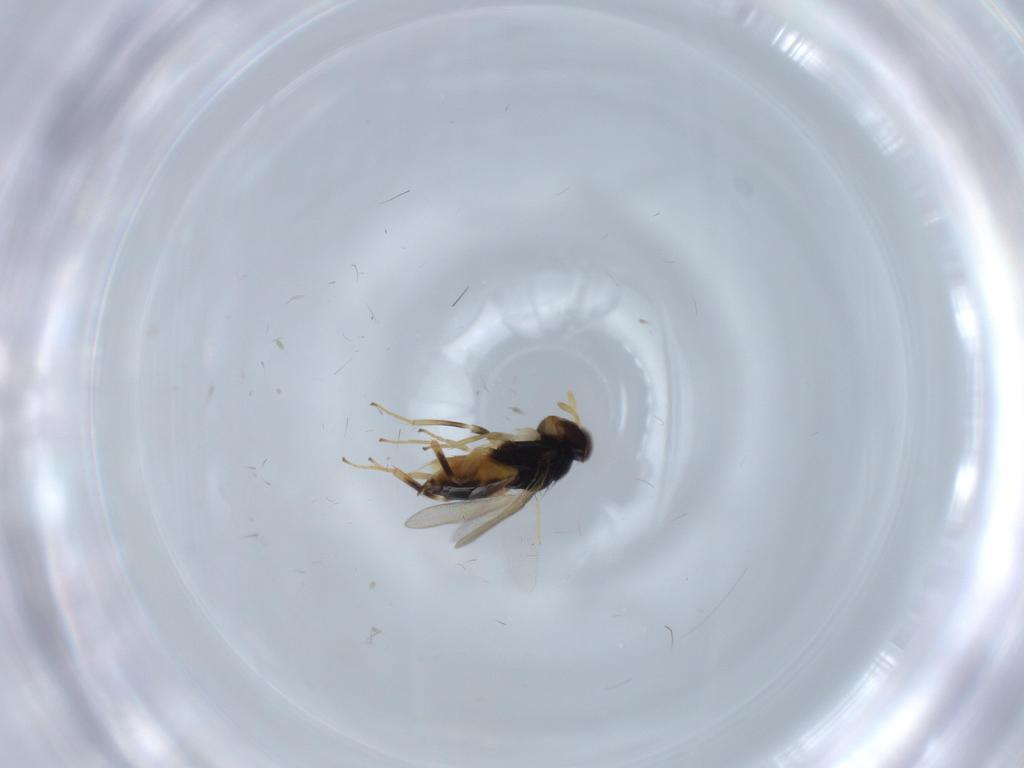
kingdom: Animalia
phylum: Arthropoda
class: Insecta
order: Hymenoptera
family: Aphelinidae
